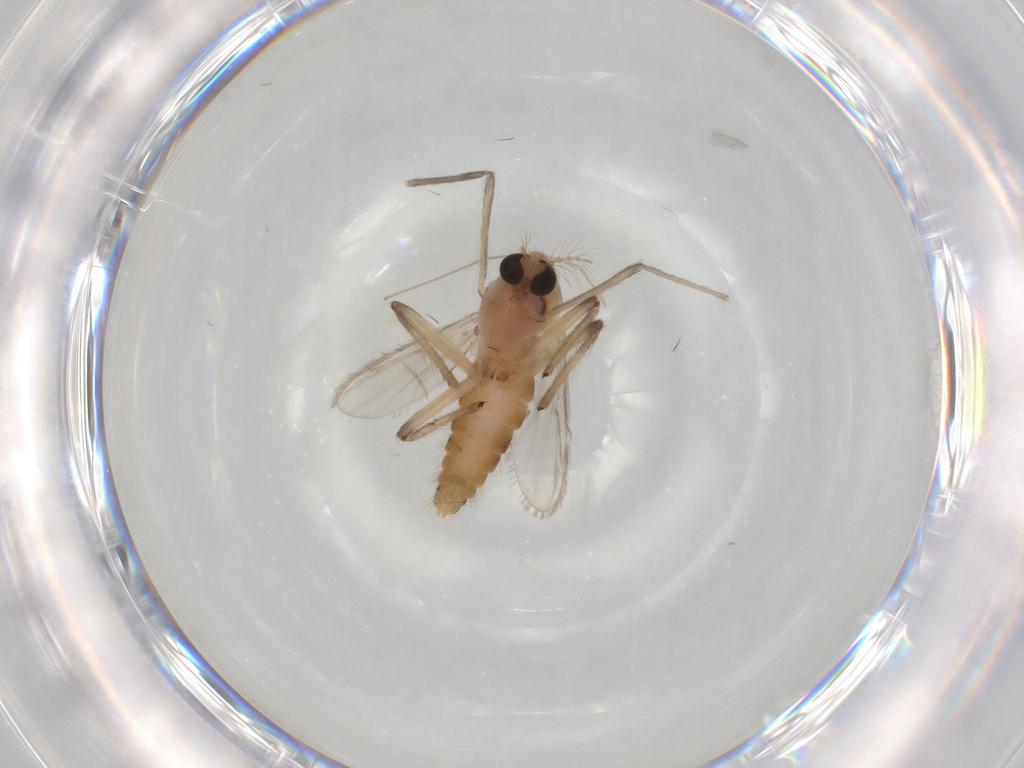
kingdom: Animalia
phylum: Arthropoda
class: Insecta
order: Diptera
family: Chironomidae
